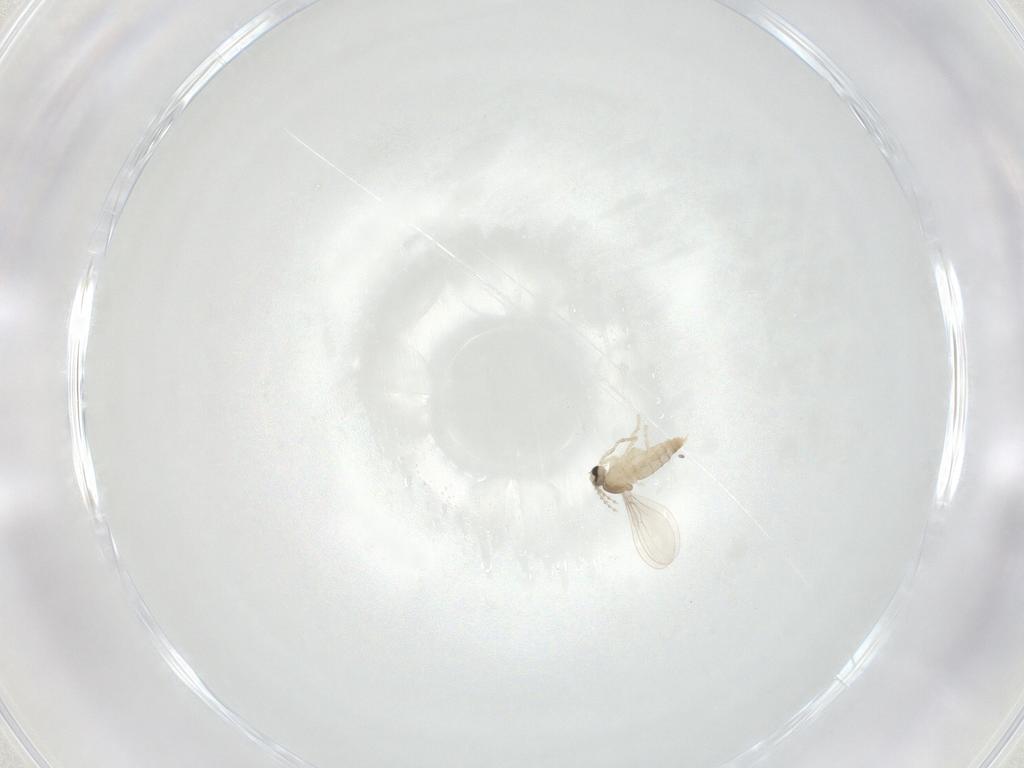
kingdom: Animalia
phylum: Arthropoda
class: Insecta
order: Diptera
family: Cecidomyiidae
